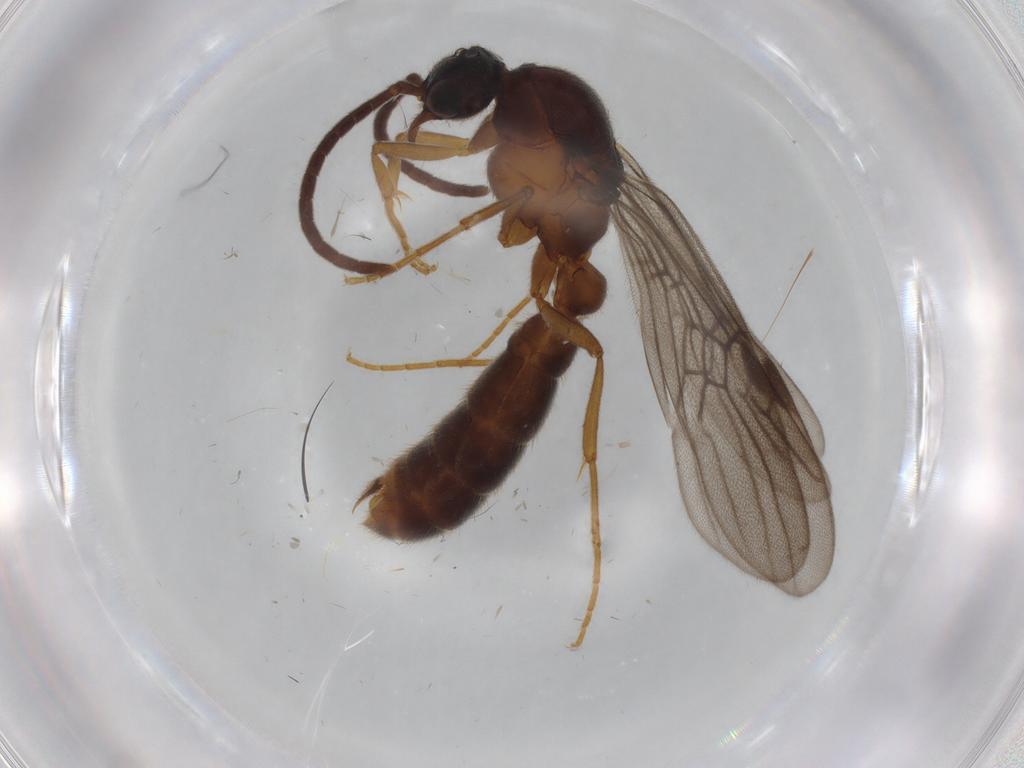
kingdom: Animalia
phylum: Arthropoda
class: Insecta
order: Hymenoptera
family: Formicidae
